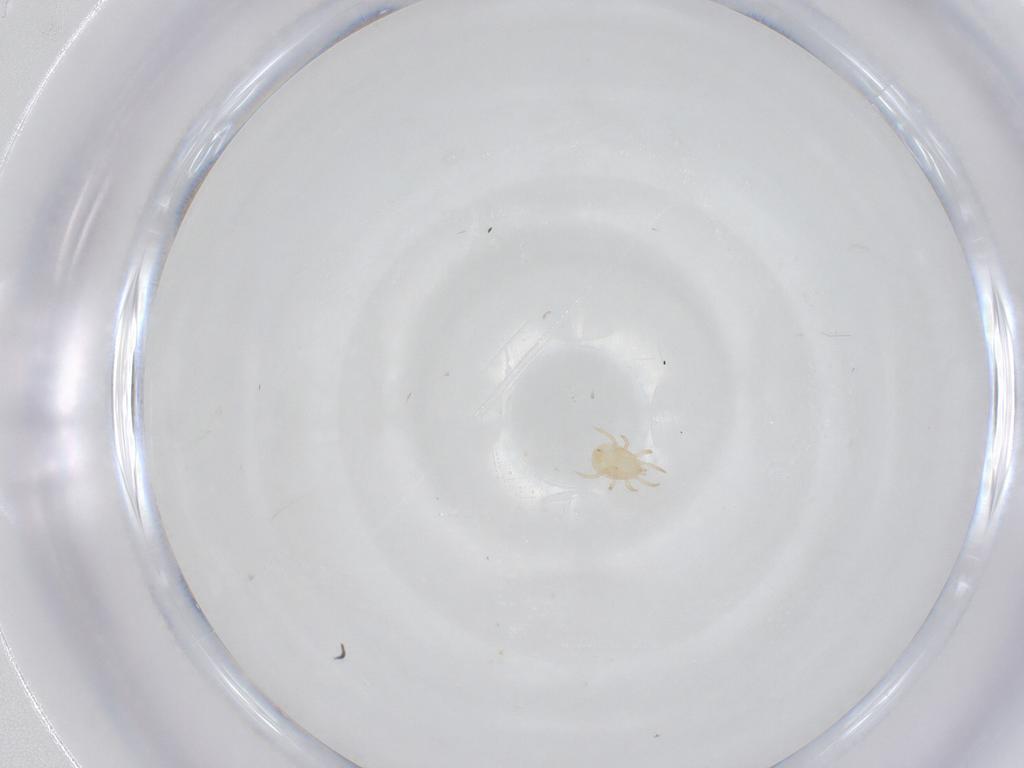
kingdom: Animalia
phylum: Arthropoda
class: Arachnida
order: Mesostigmata
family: Ameroseiidae
